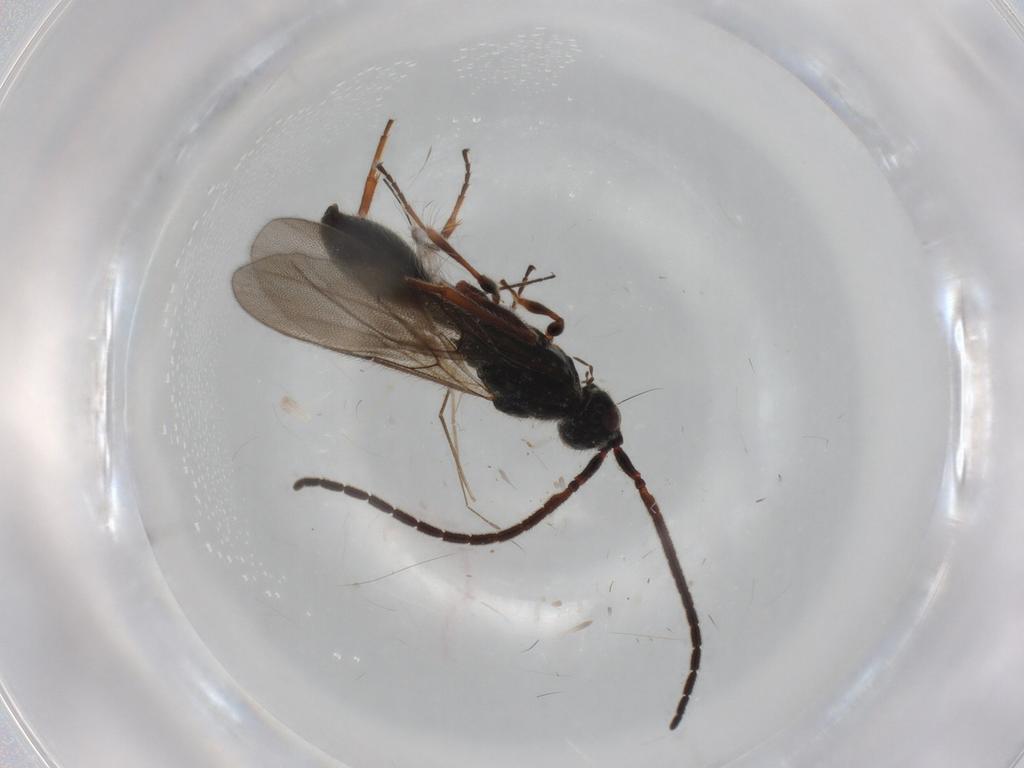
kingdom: Animalia
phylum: Arthropoda
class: Insecta
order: Hymenoptera
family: Diapriidae
